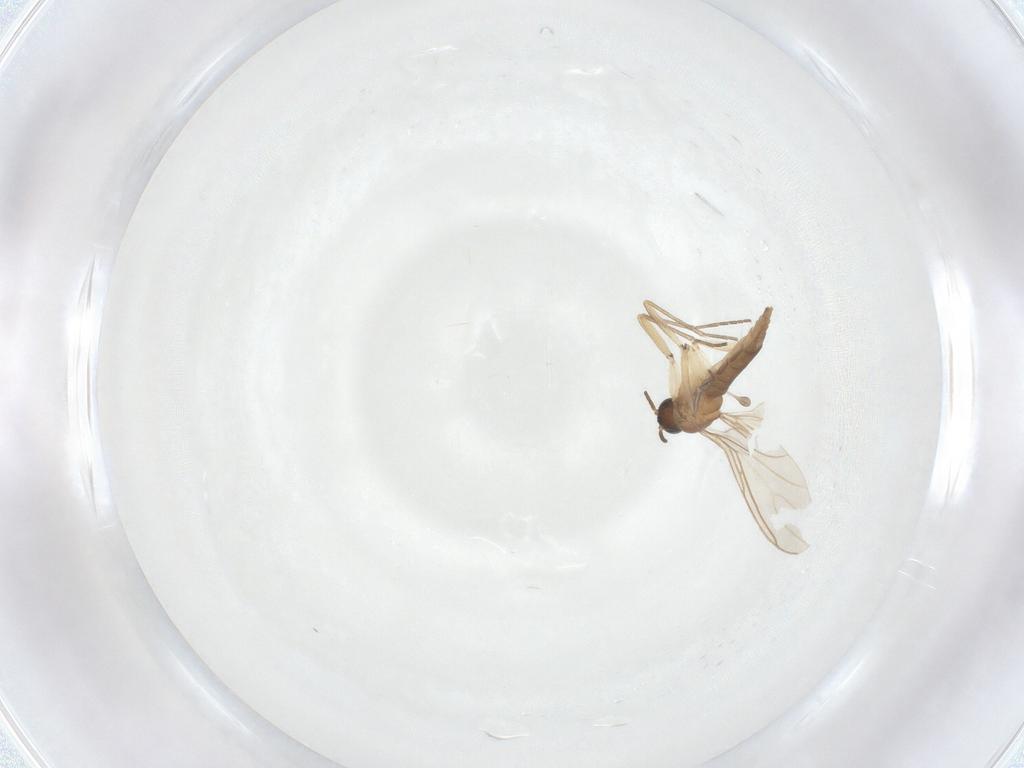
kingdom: Animalia
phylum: Arthropoda
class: Insecta
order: Diptera
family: Sciaridae
